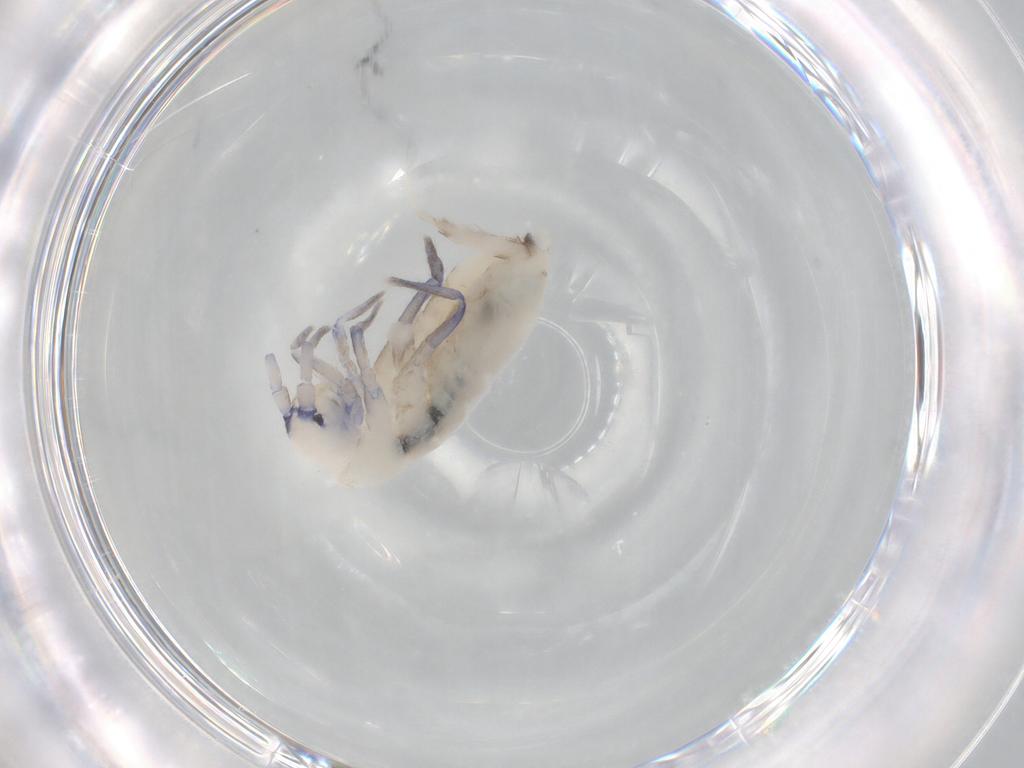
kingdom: Animalia
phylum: Arthropoda
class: Collembola
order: Entomobryomorpha
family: Tomoceridae
